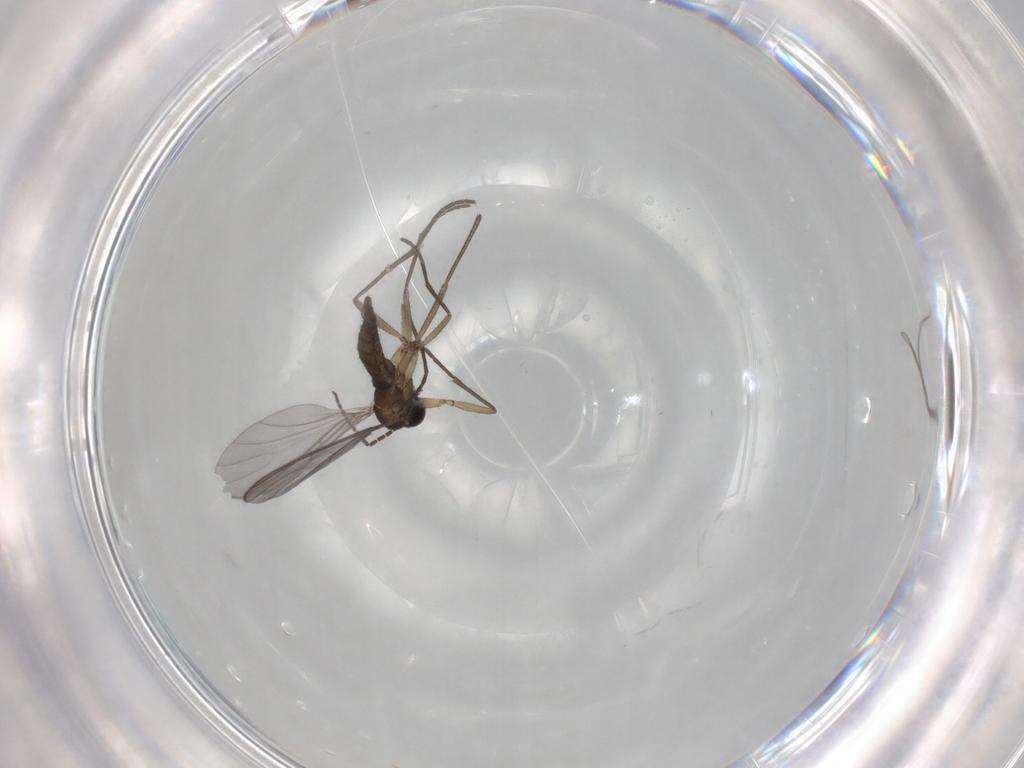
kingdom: Animalia
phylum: Arthropoda
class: Insecta
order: Diptera
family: Sciaridae
